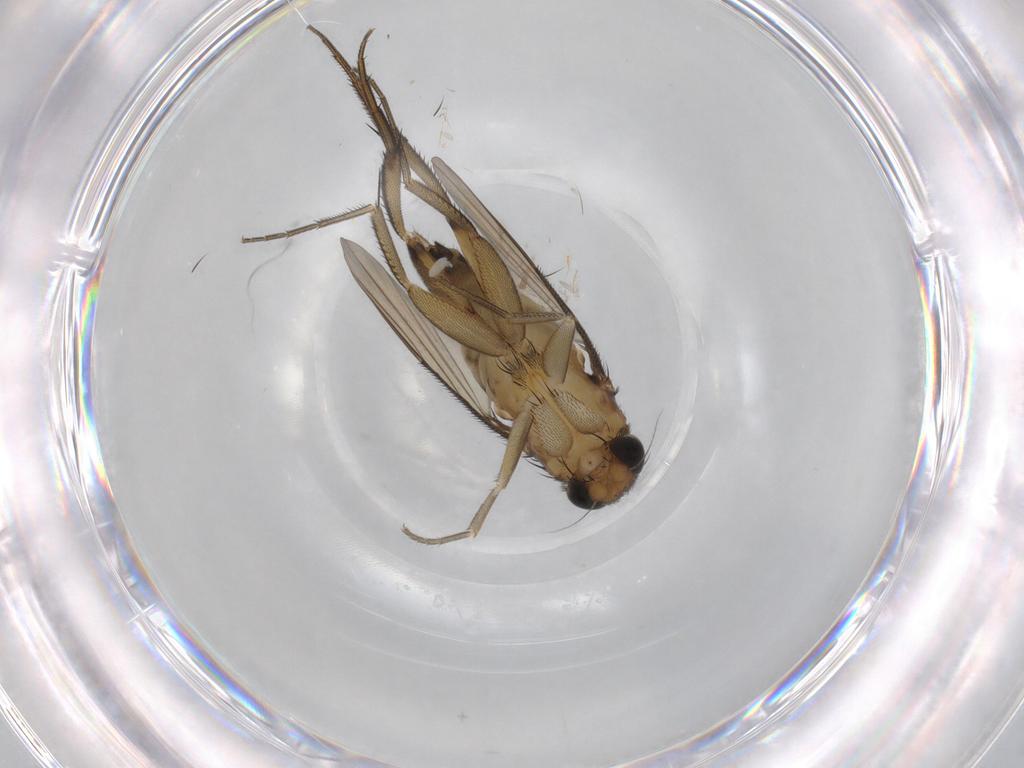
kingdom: Animalia
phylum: Arthropoda
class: Insecta
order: Diptera
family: Phoridae
